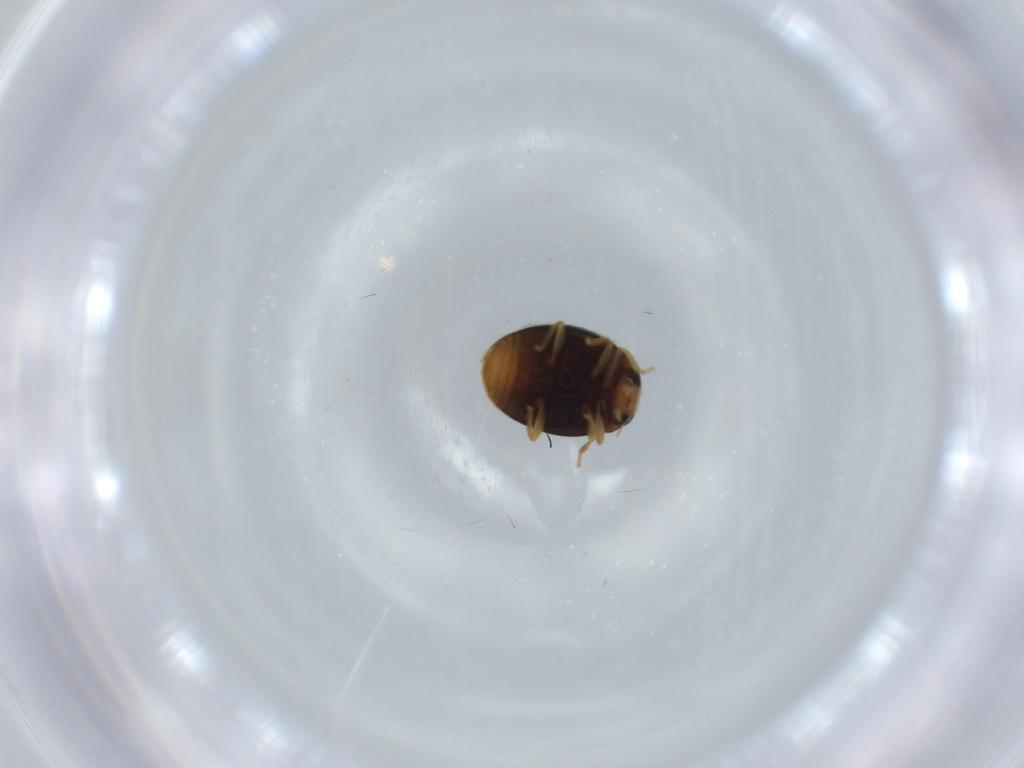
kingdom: Animalia
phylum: Arthropoda
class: Insecta
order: Coleoptera
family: Coccinellidae
